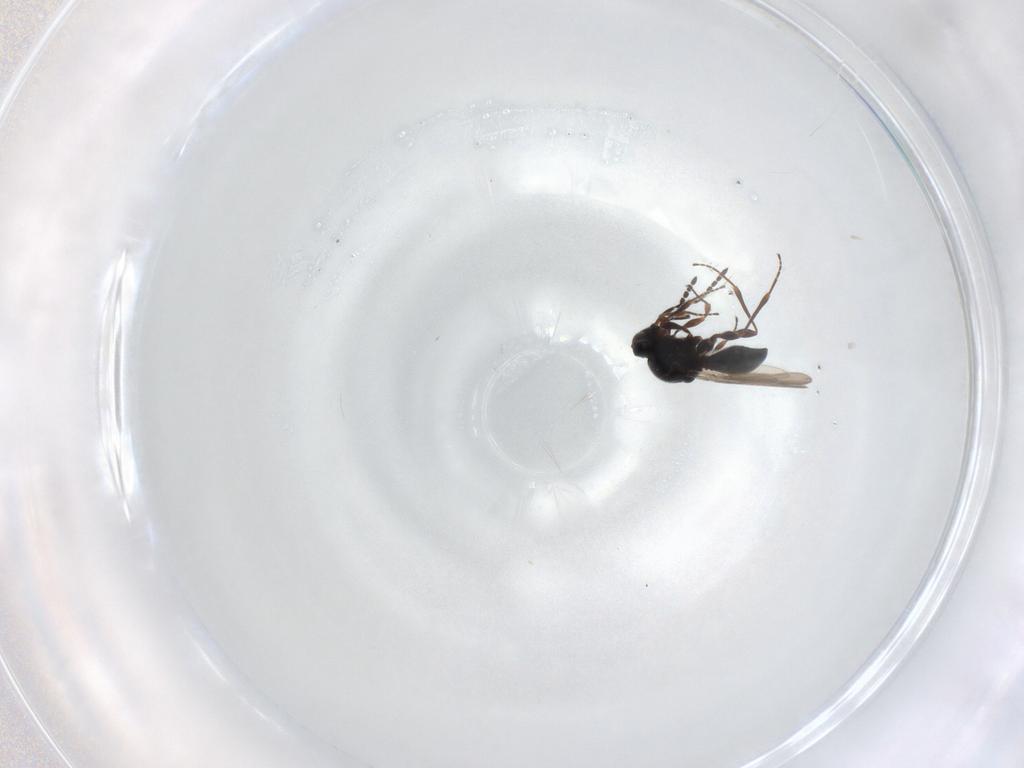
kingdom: Animalia
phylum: Arthropoda
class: Insecta
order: Hymenoptera
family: Platygastridae
